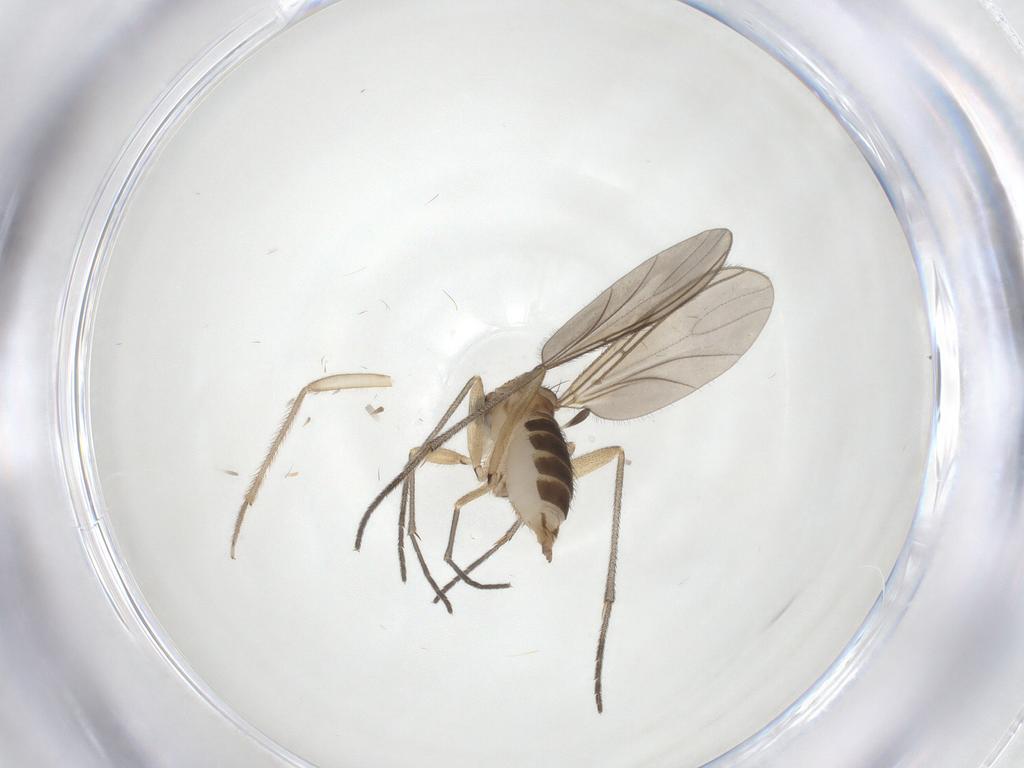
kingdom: Animalia
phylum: Arthropoda
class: Insecta
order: Diptera
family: Sciaridae
